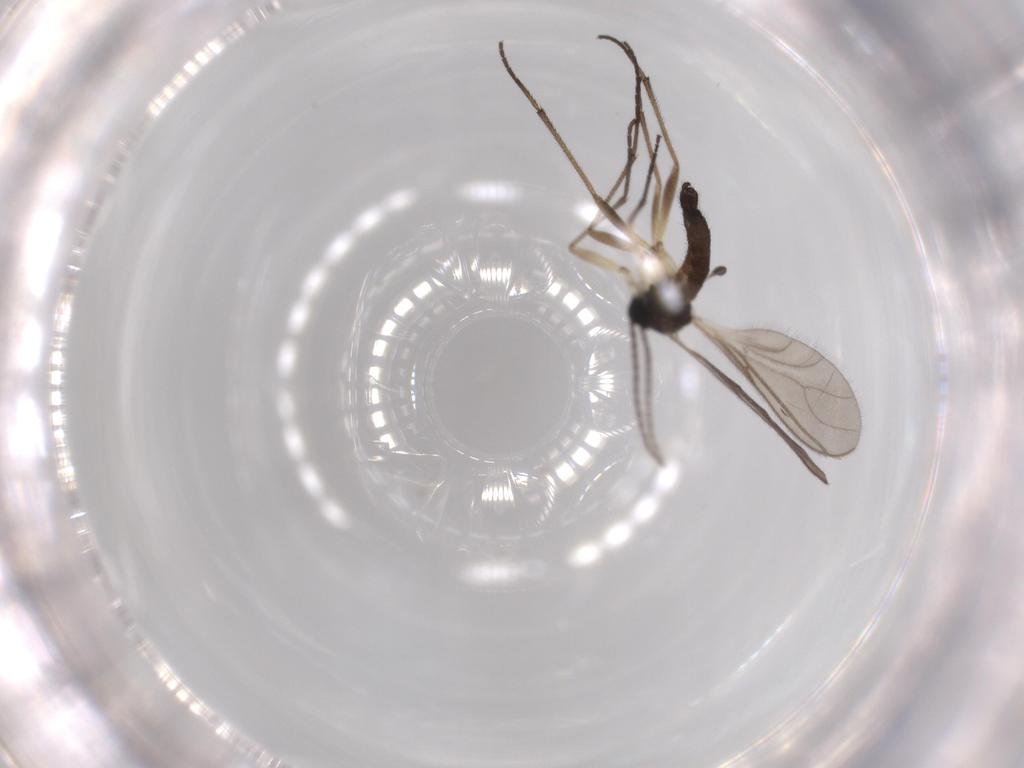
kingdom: Animalia
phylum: Arthropoda
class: Insecta
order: Diptera
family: Sciaridae
